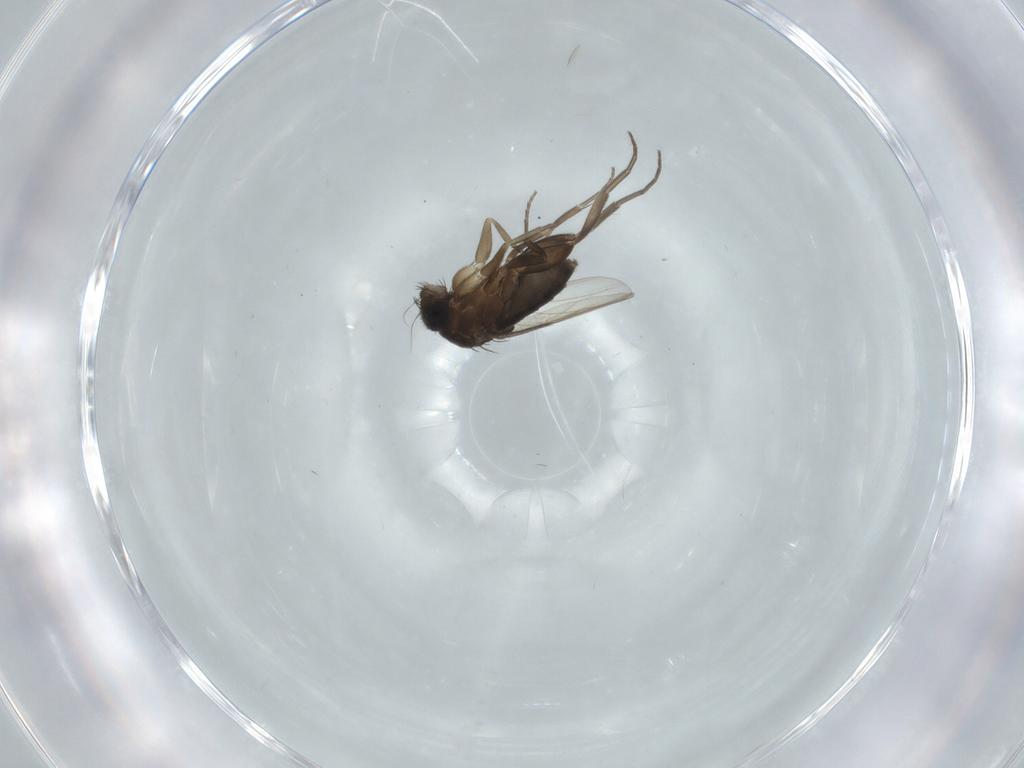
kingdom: Animalia
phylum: Arthropoda
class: Insecta
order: Diptera
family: Phoridae
